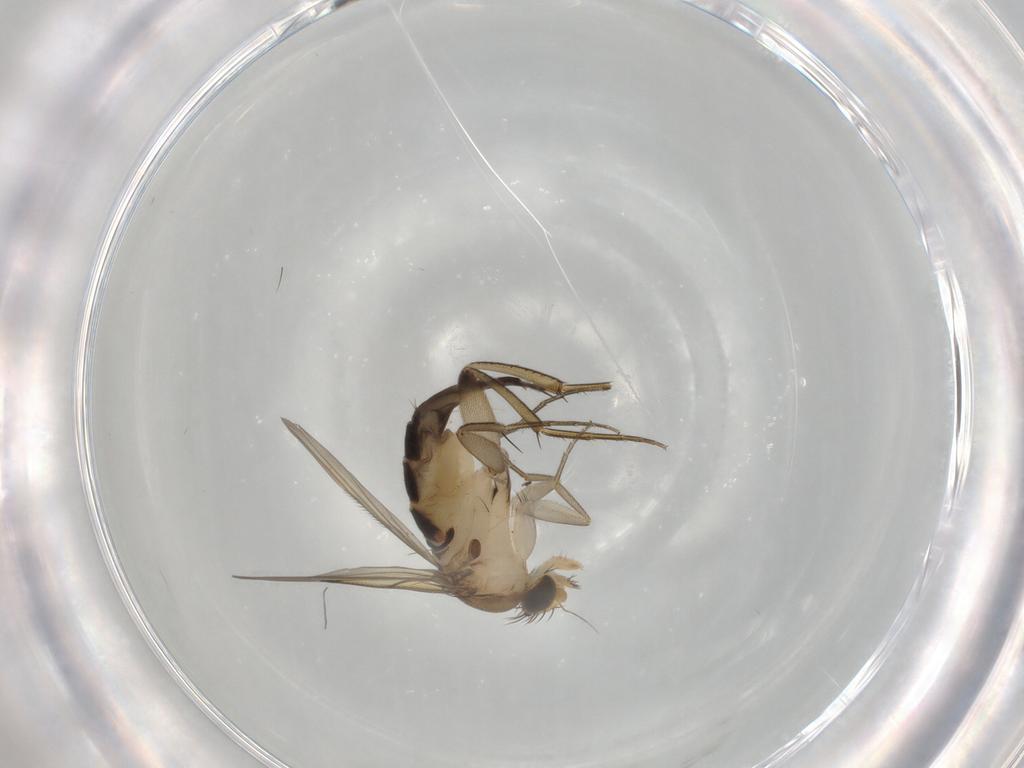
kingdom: Animalia
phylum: Arthropoda
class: Insecta
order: Diptera
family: Phoridae
